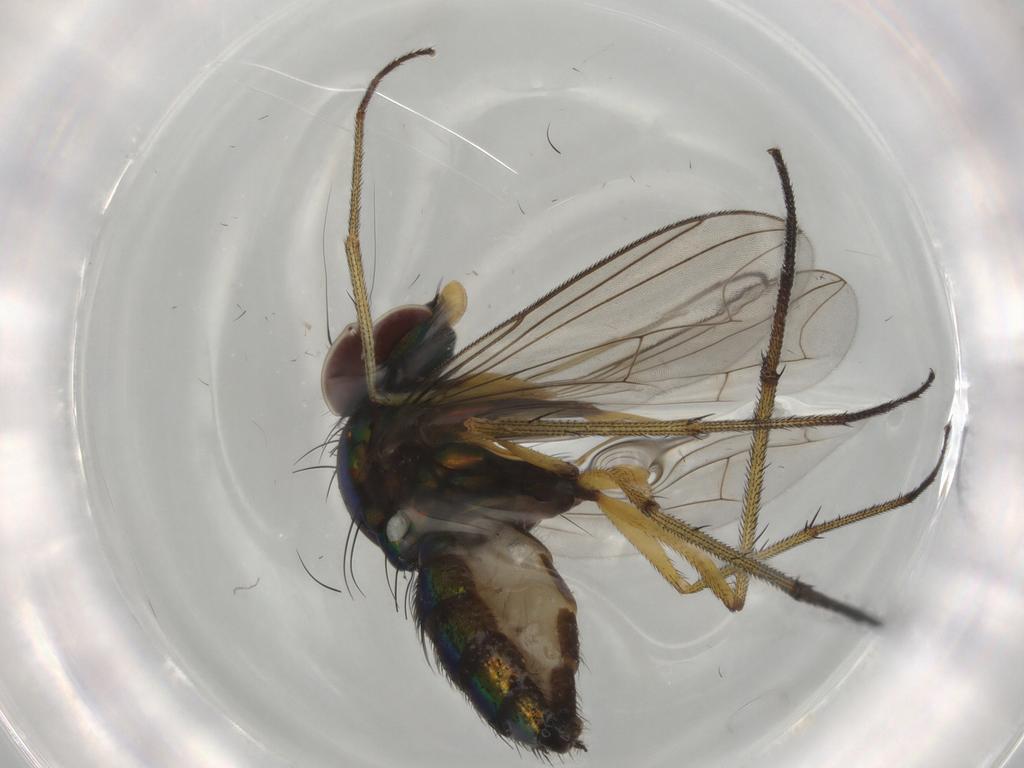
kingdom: Animalia
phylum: Arthropoda
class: Insecta
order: Diptera
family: Dolichopodidae
